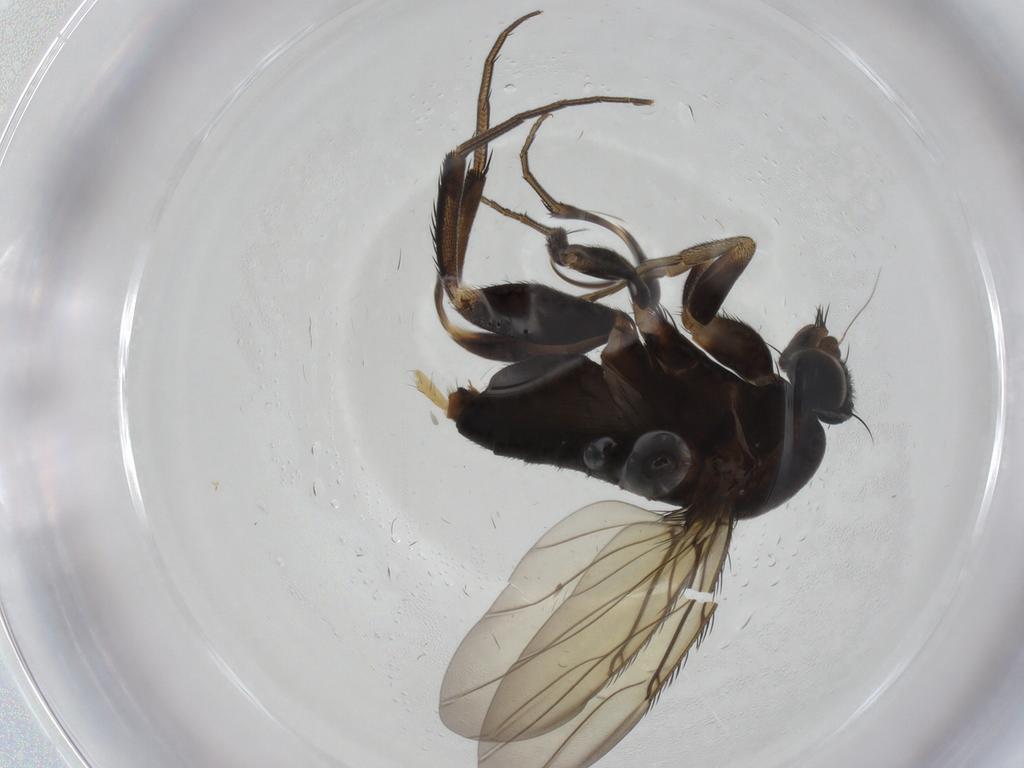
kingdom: Animalia
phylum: Arthropoda
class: Insecta
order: Diptera
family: Phoridae
